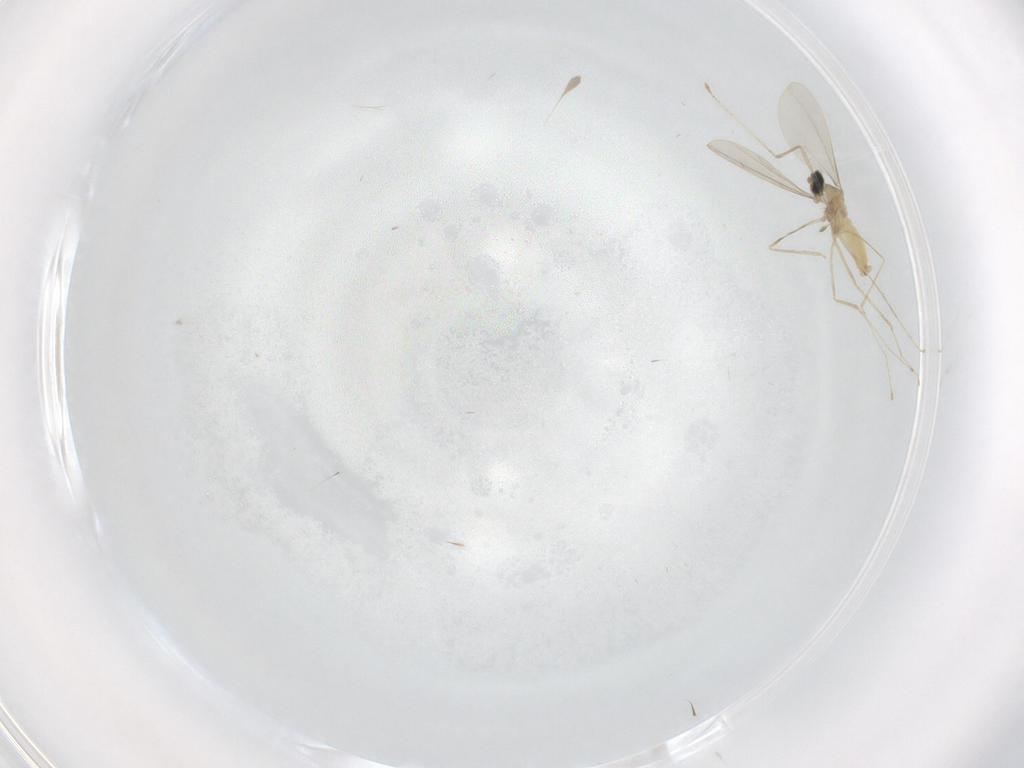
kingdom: Animalia
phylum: Arthropoda
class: Insecta
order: Diptera
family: Cecidomyiidae
